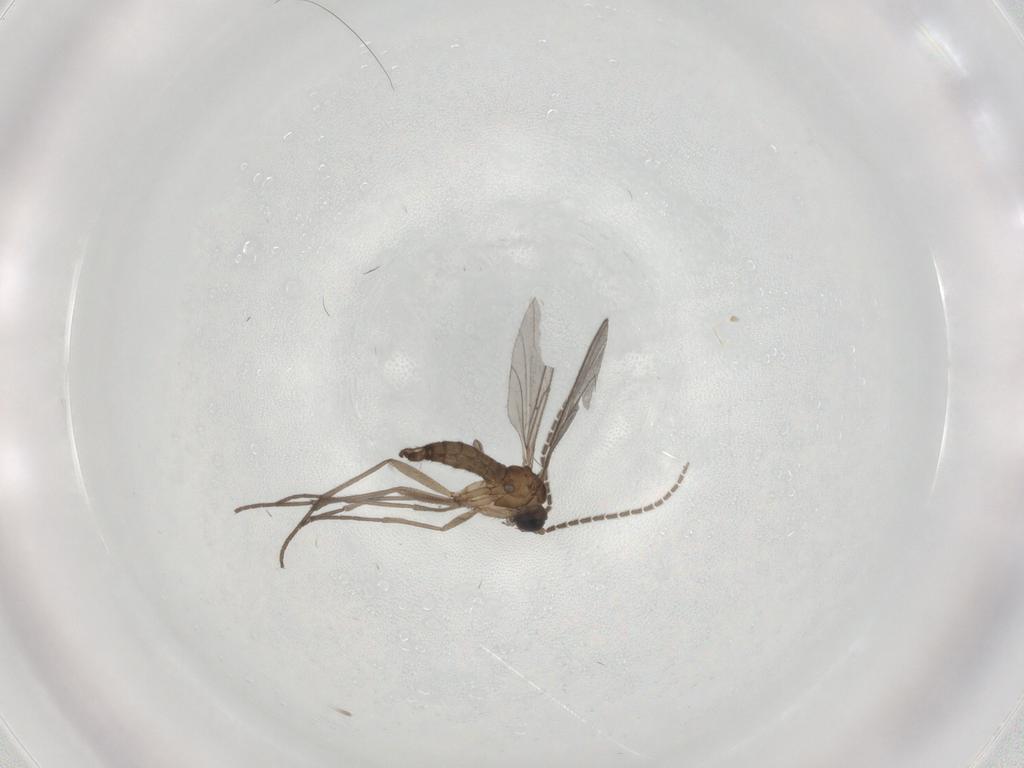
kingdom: Animalia
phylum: Arthropoda
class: Insecta
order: Diptera
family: Sciaridae
